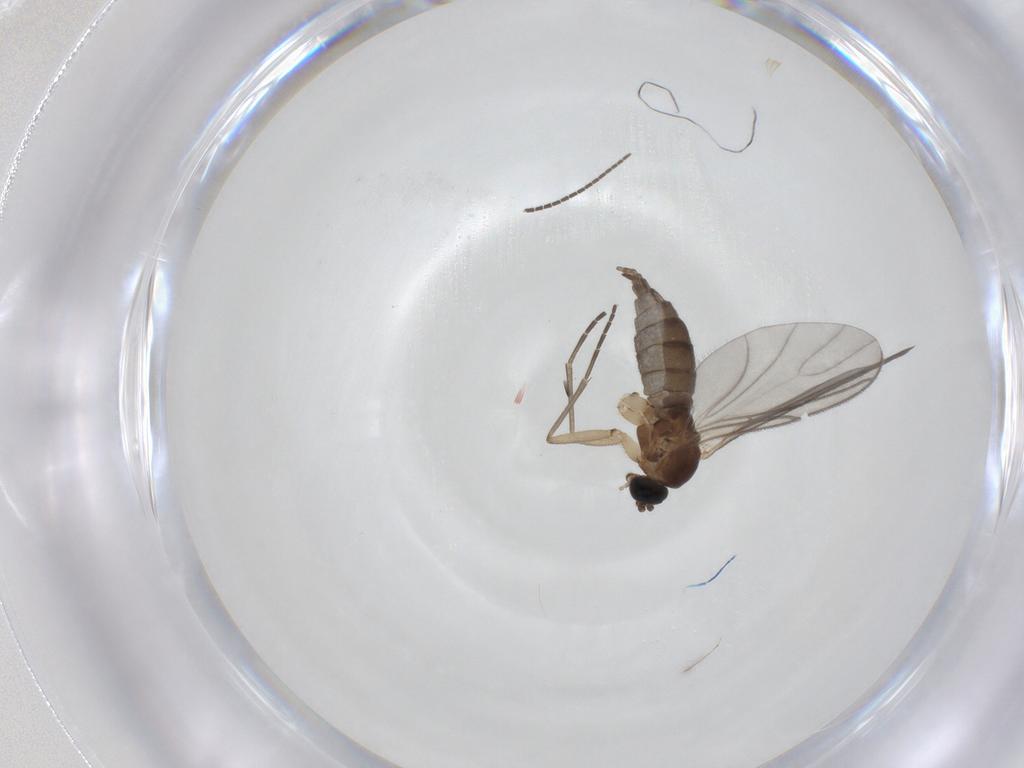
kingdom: Animalia
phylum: Arthropoda
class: Insecta
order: Diptera
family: Sciaridae
